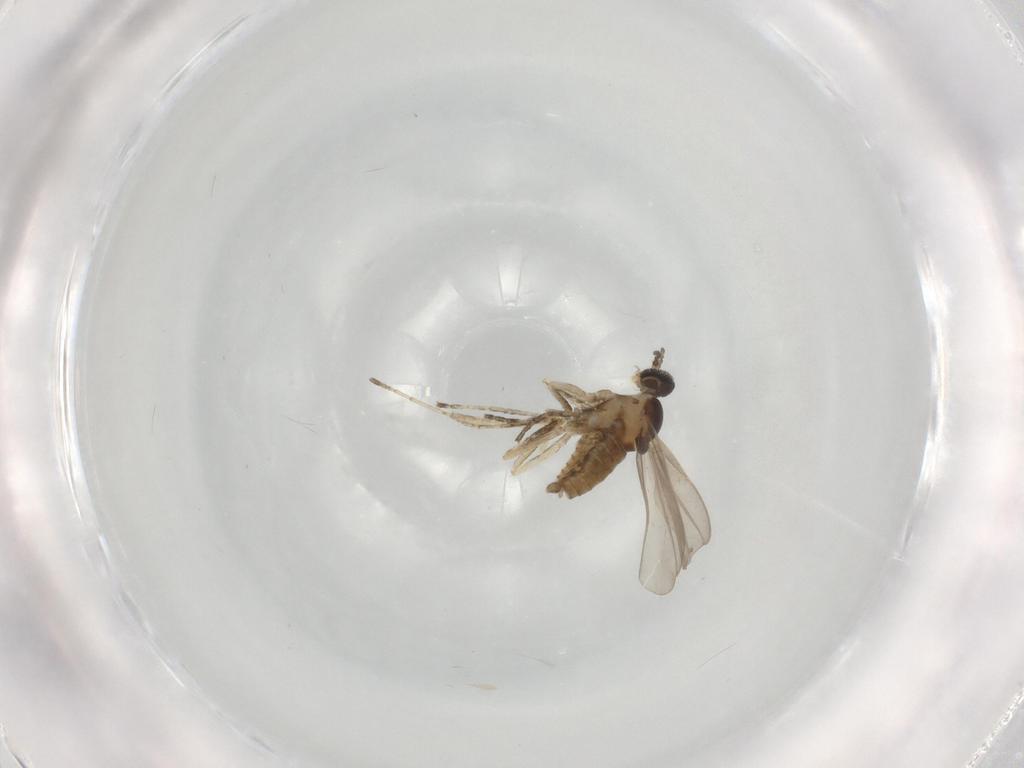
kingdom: Animalia
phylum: Arthropoda
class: Insecta
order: Diptera
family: Cecidomyiidae
